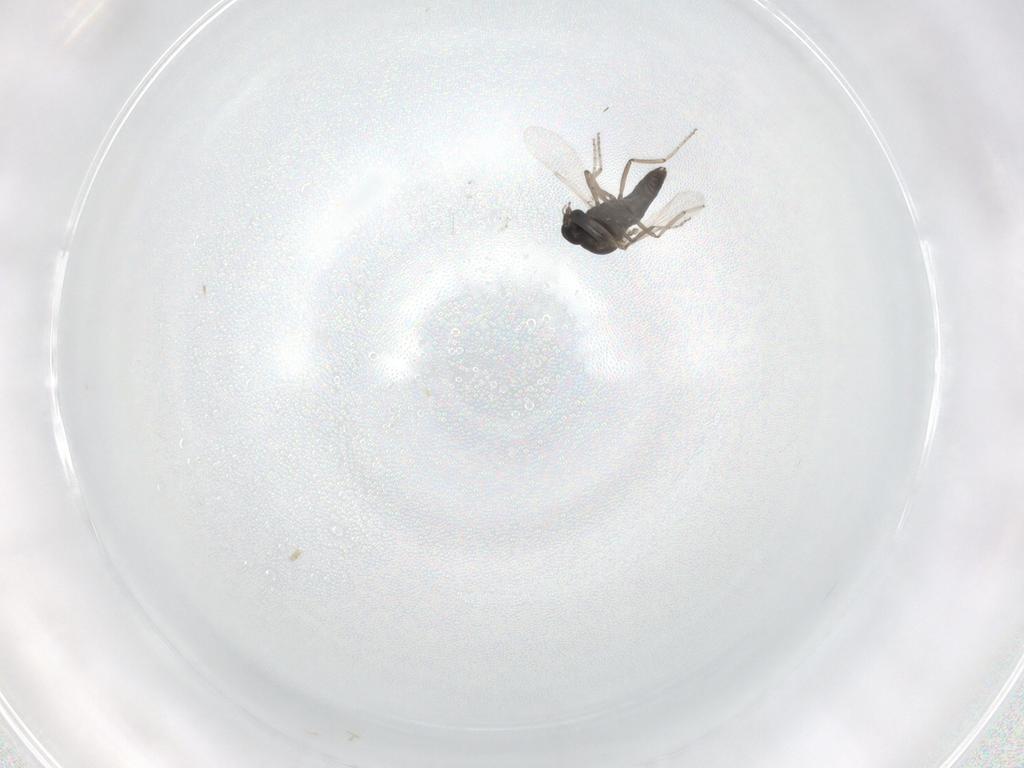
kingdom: Animalia
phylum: Arthropoda
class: Insecta
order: Diptera
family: Ceratopogonidae
